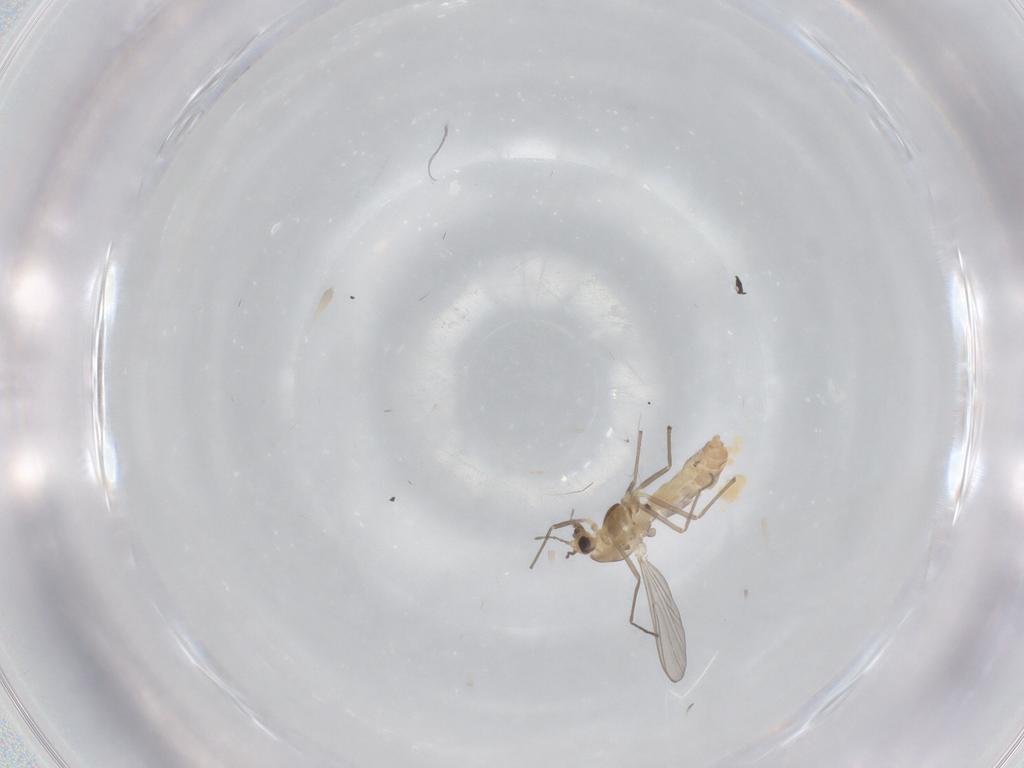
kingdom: Animalia
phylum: Arthropoda
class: Insecta
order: Diptera
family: Chironomidae
